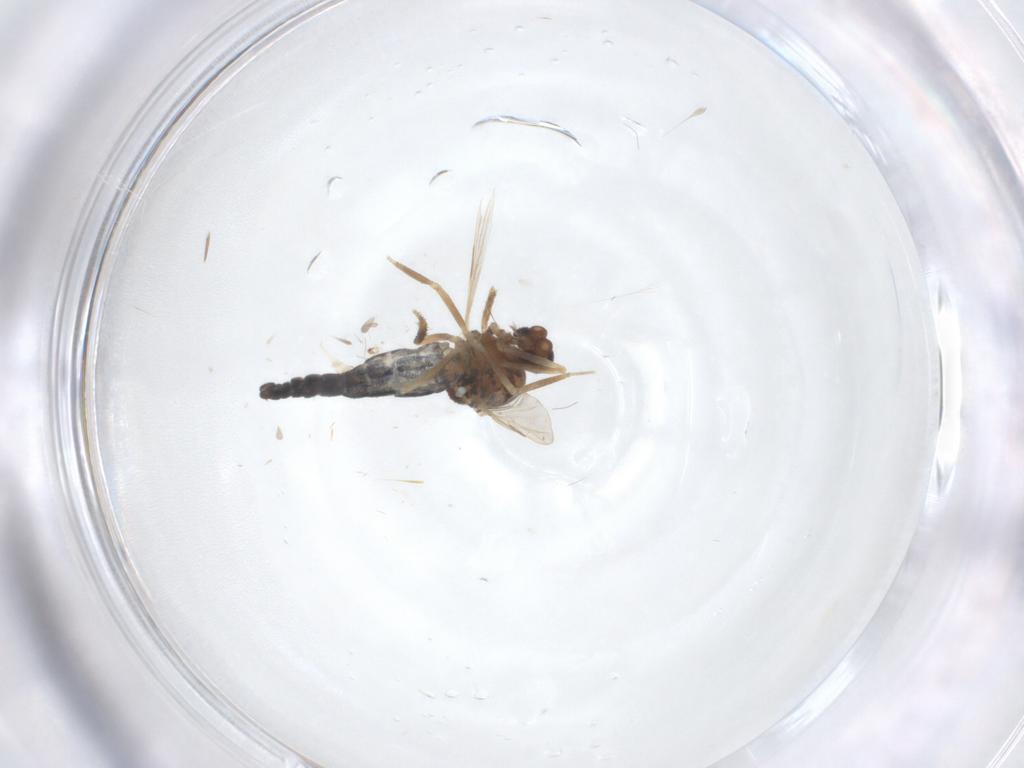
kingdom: Animalia
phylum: Arthropoda
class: Insecta
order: Diptera
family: Ceratopogonidae
